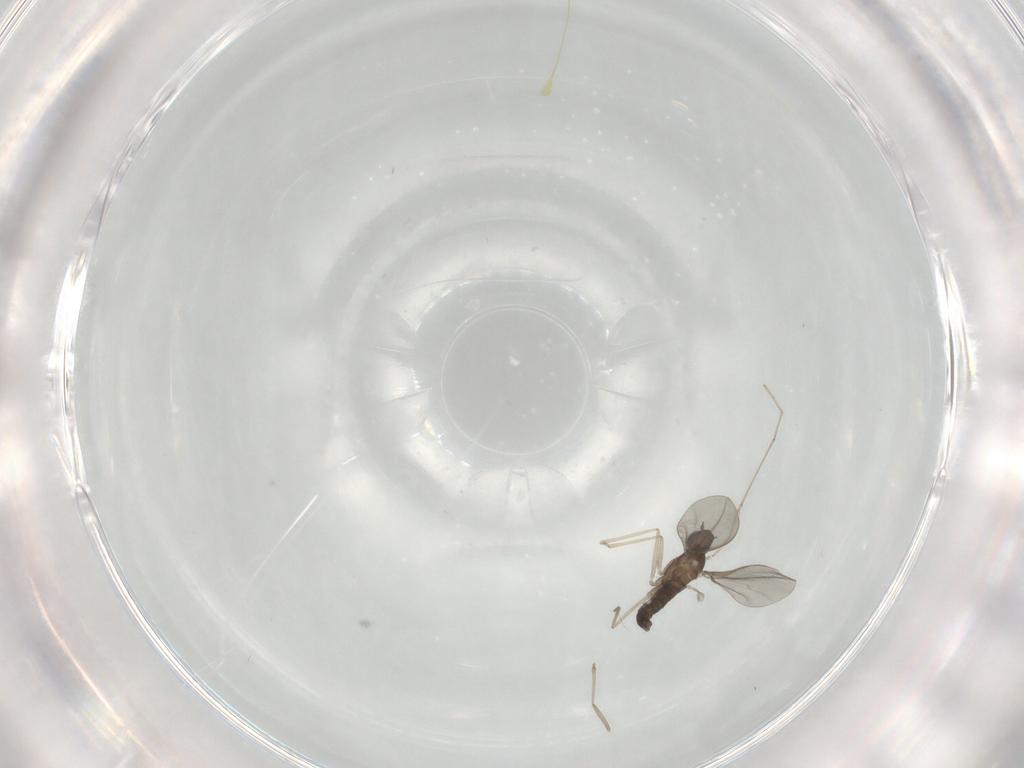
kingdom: Animalia
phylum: Arthropoda
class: Insecta
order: Diptera
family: Cecidomyiidae
